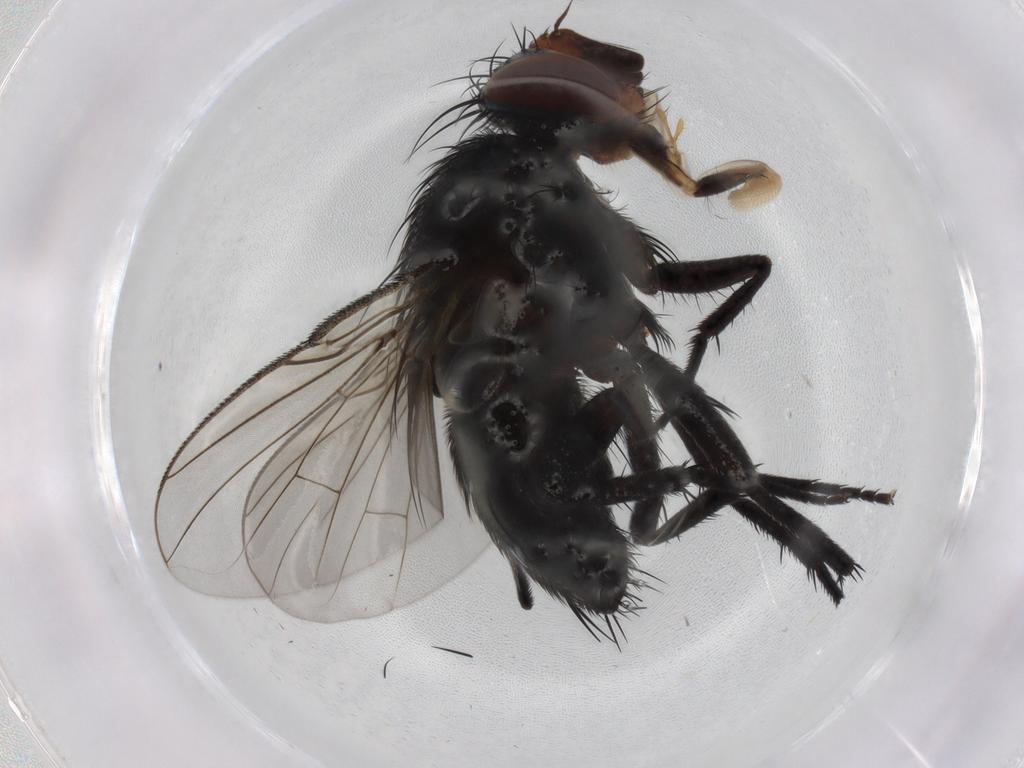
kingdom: Animalia
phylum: Arthropoda
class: Insecta
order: Diptera
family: Tachinidae
